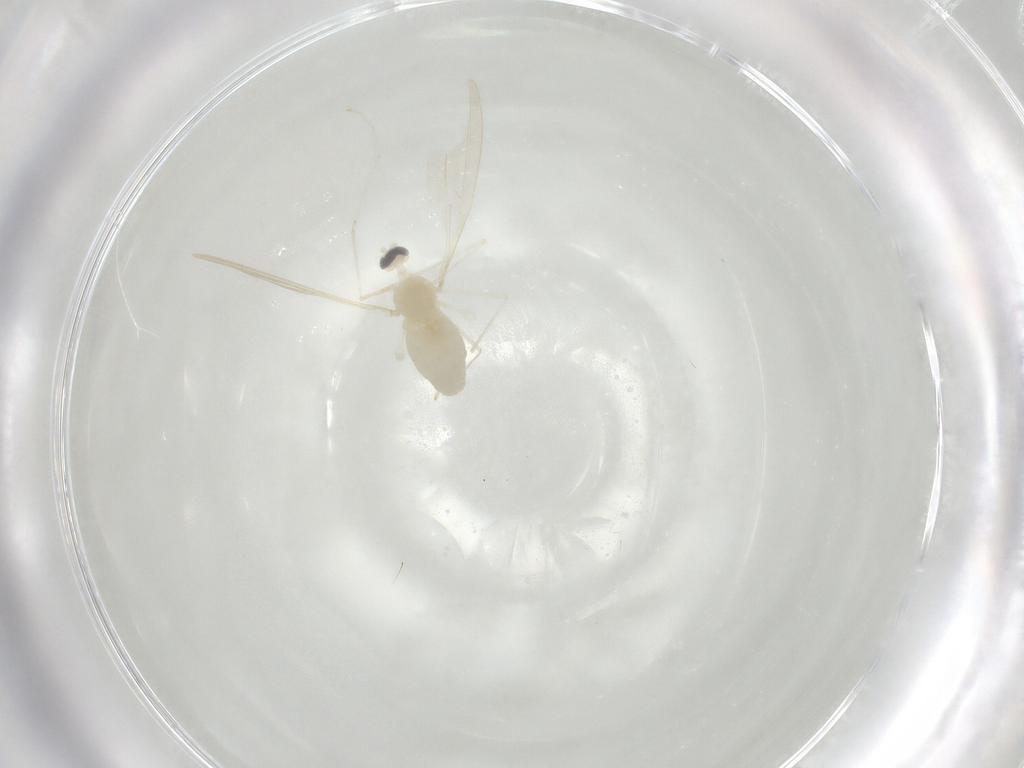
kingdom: Animalia
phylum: Arthropoda
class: Insecta
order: Diptera
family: Cecidomyiidae
